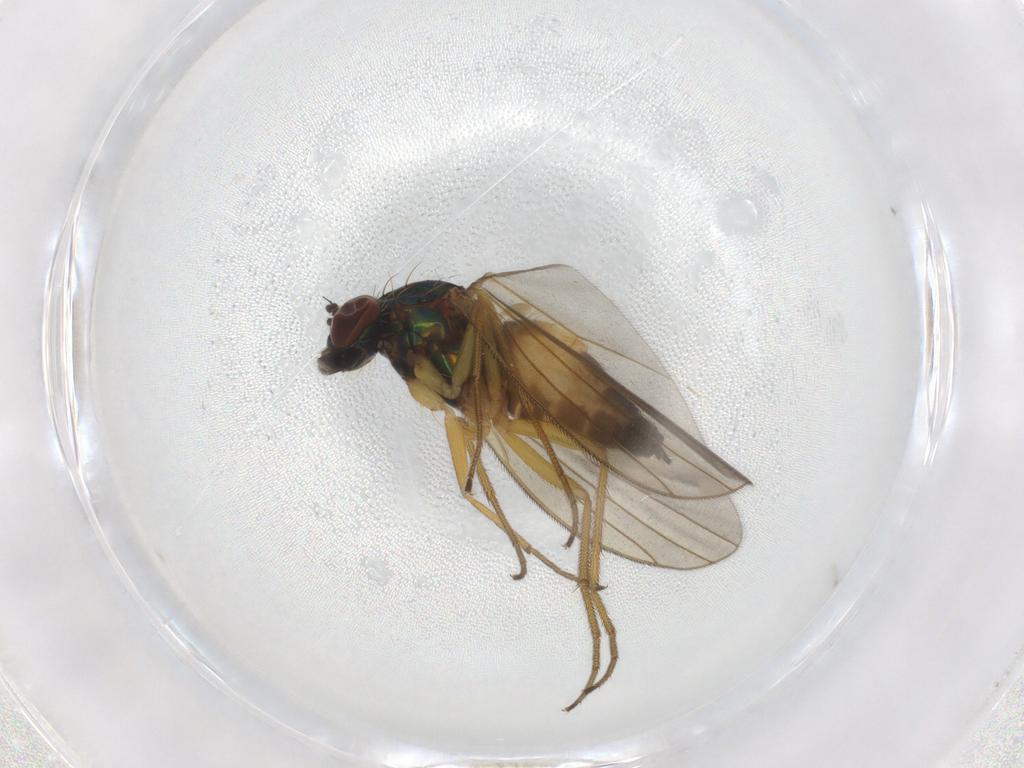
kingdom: Animalia
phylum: Arthropoda
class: Insecta
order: Diptera
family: Dolichopodidae
